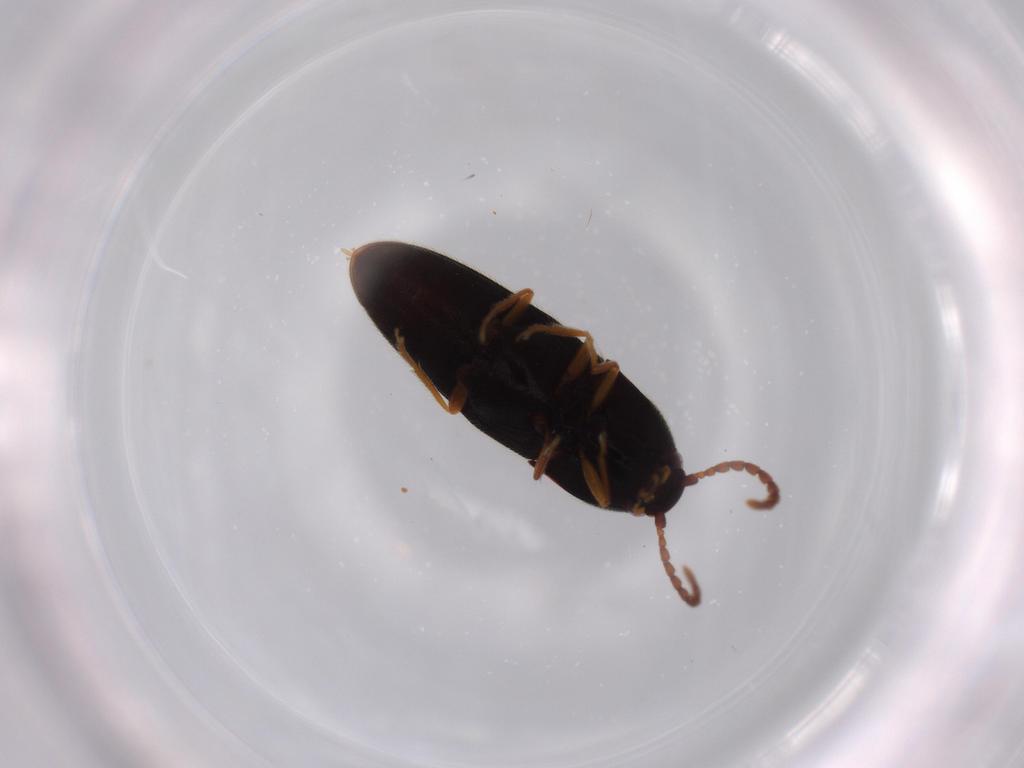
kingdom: Animalia
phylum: Arthropoda
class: Insecta
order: Coleoptera
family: Elateridae
